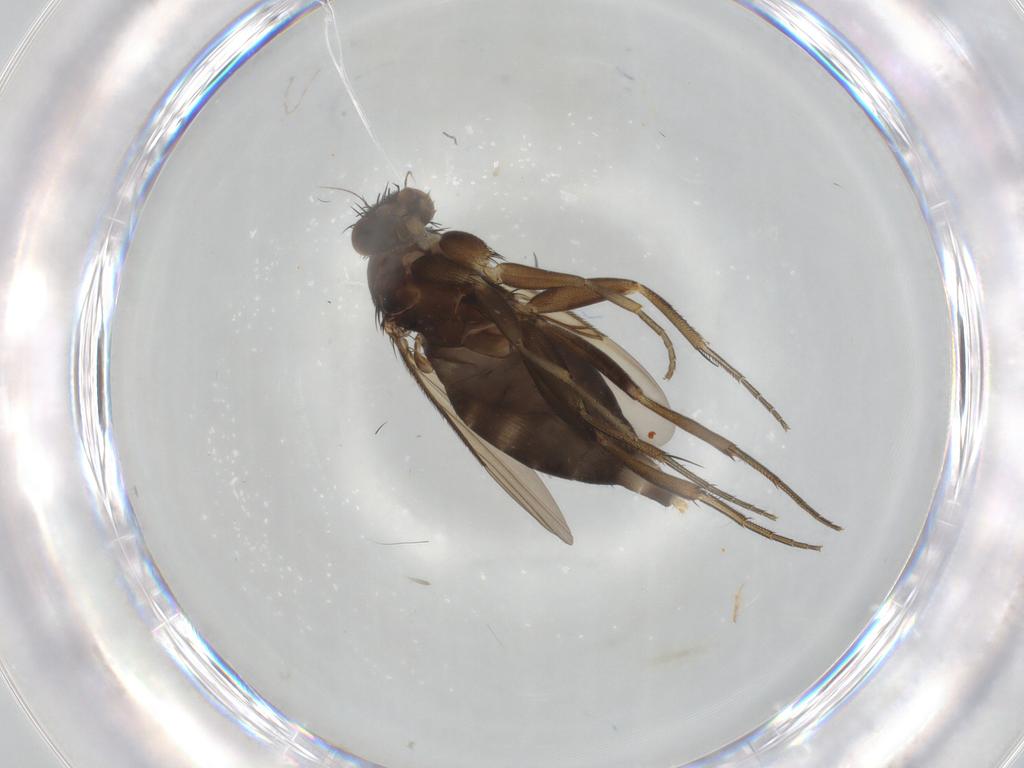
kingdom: Animalia
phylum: Arthropoda
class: Insecta
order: Diptera
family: Phoridae
